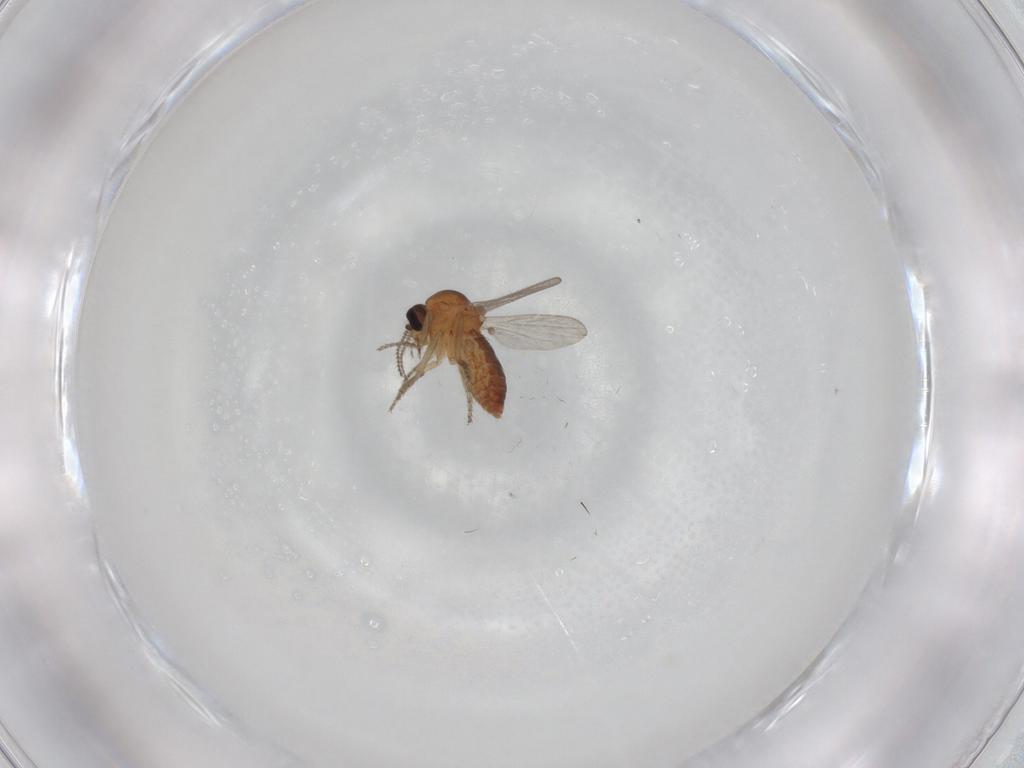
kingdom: Animalia
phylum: Arthropoda
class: Insecta
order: Diptera
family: Ceratopogonidae
